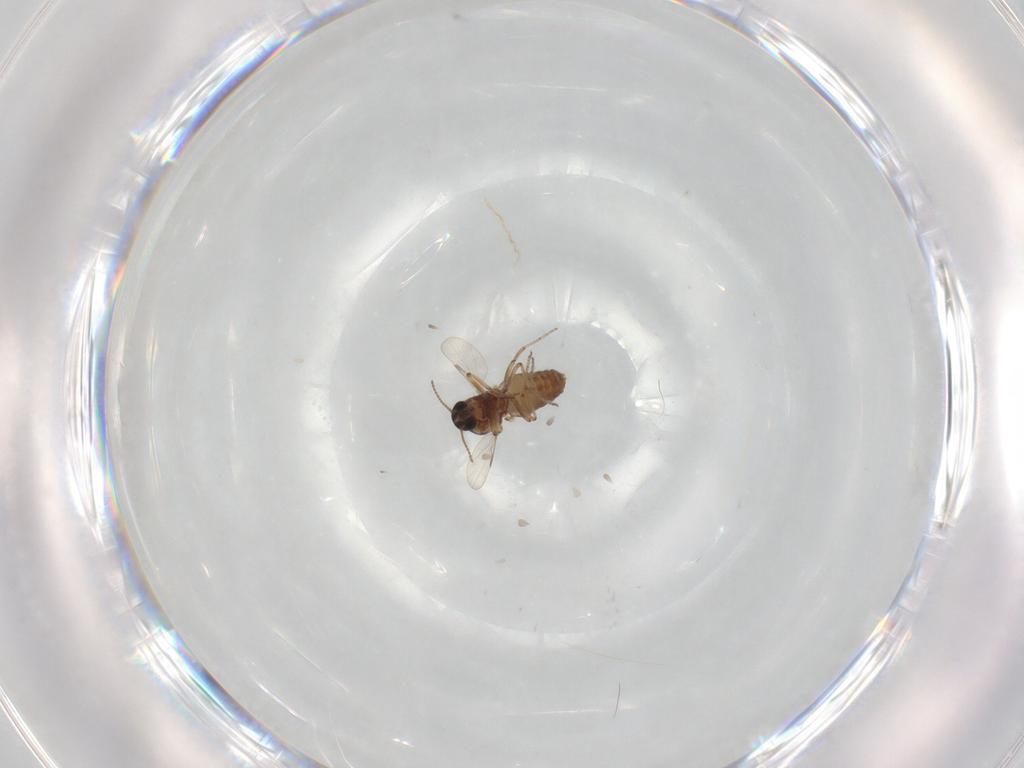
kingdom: Animalia
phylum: Arthropoda
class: Insecta
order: Diptera
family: Ceratopogonidae
